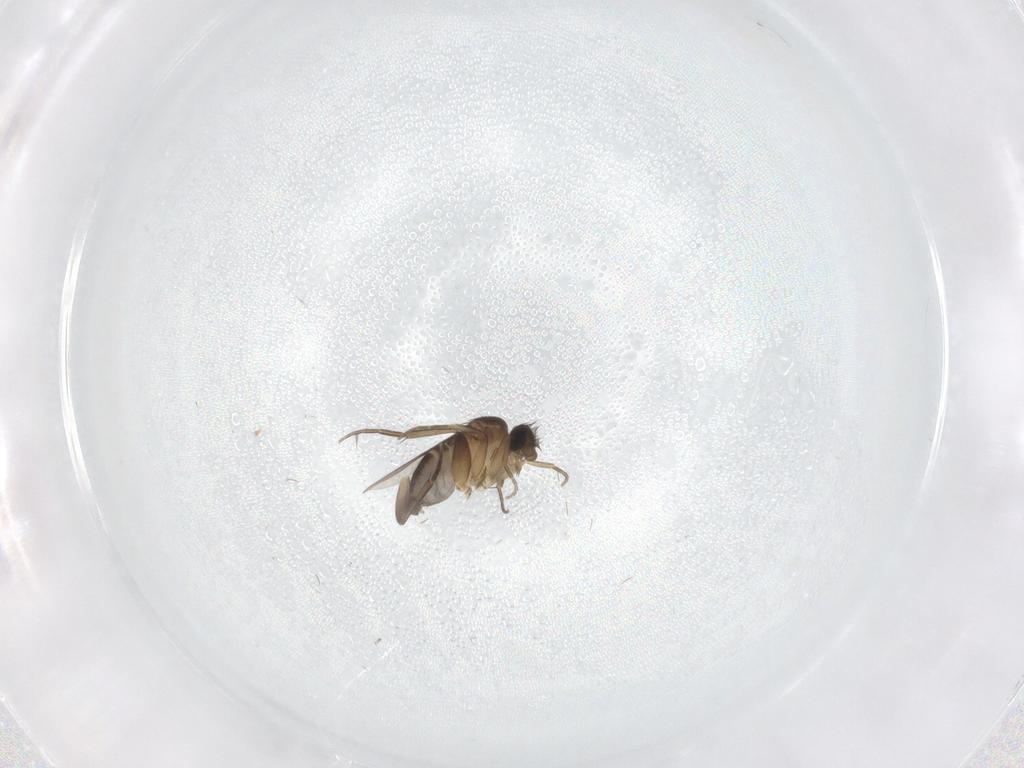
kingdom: Animalia
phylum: Arthropoda
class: Insecta
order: Diptera
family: Phoridae
